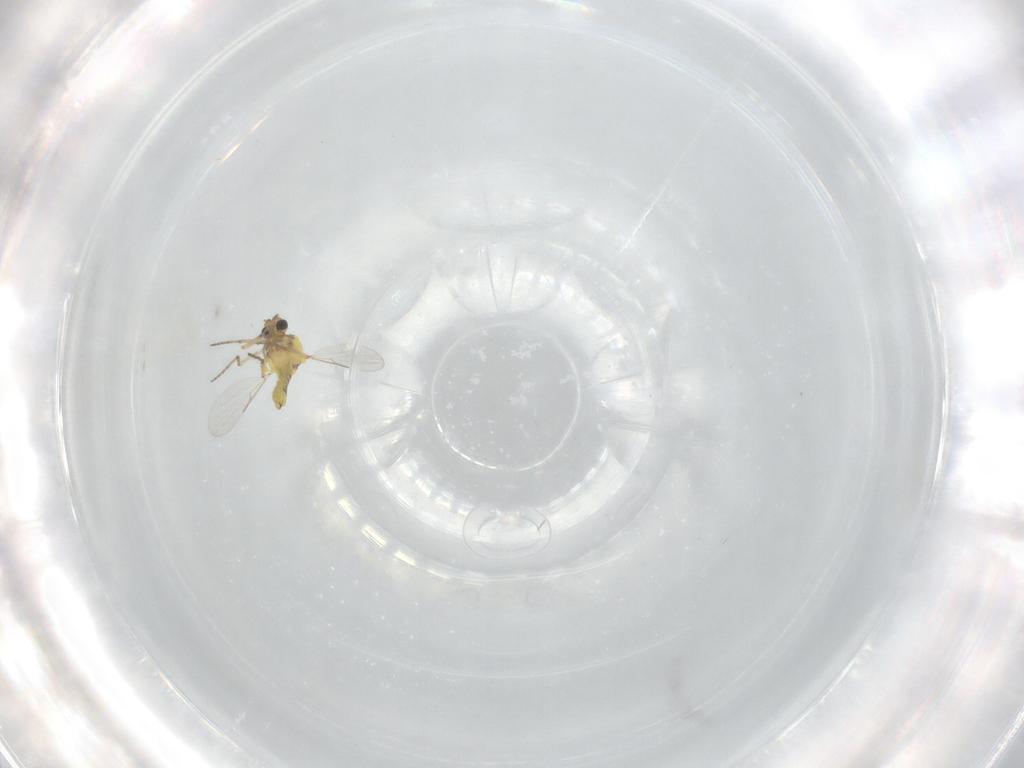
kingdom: Animalia
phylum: Arthropoda
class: Insecta
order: Diptera
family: Ceratopogonidae
